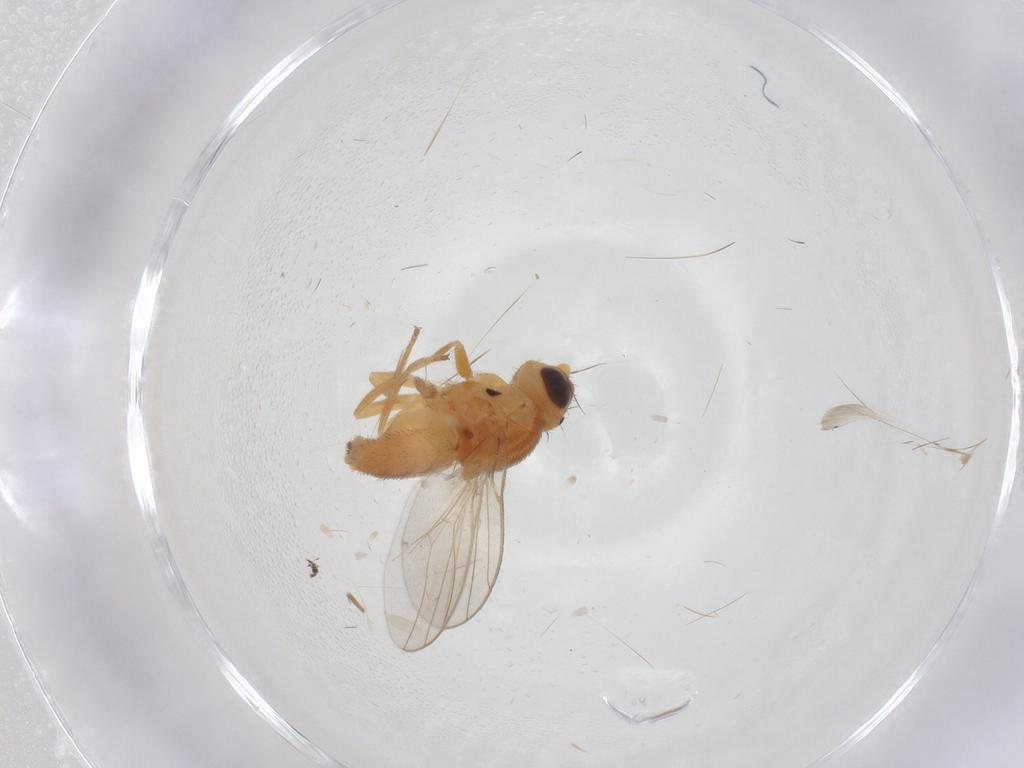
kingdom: Animalia
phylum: Arthropoda
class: Insecta
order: Diptera
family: Chloropidae
